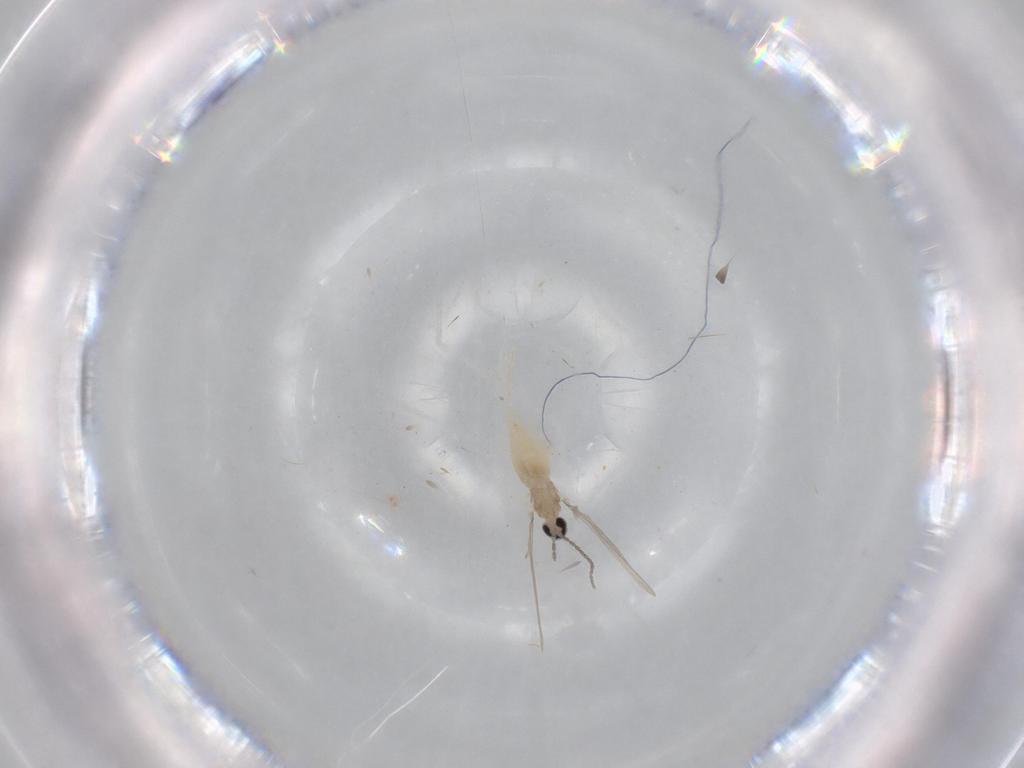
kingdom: Animalia
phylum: Arthropoda
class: Insecta
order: Diptera
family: Cecidomyiidae
